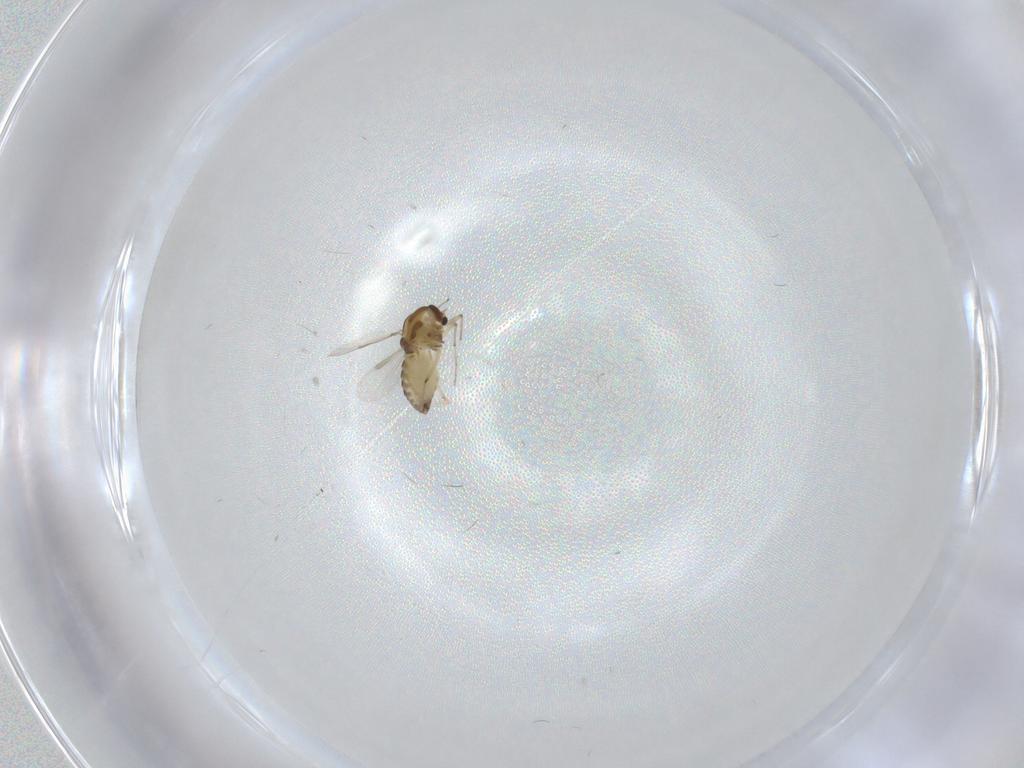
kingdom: Animalia
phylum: Arthropoda
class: Insecta
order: Diptera
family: Chironomidae
